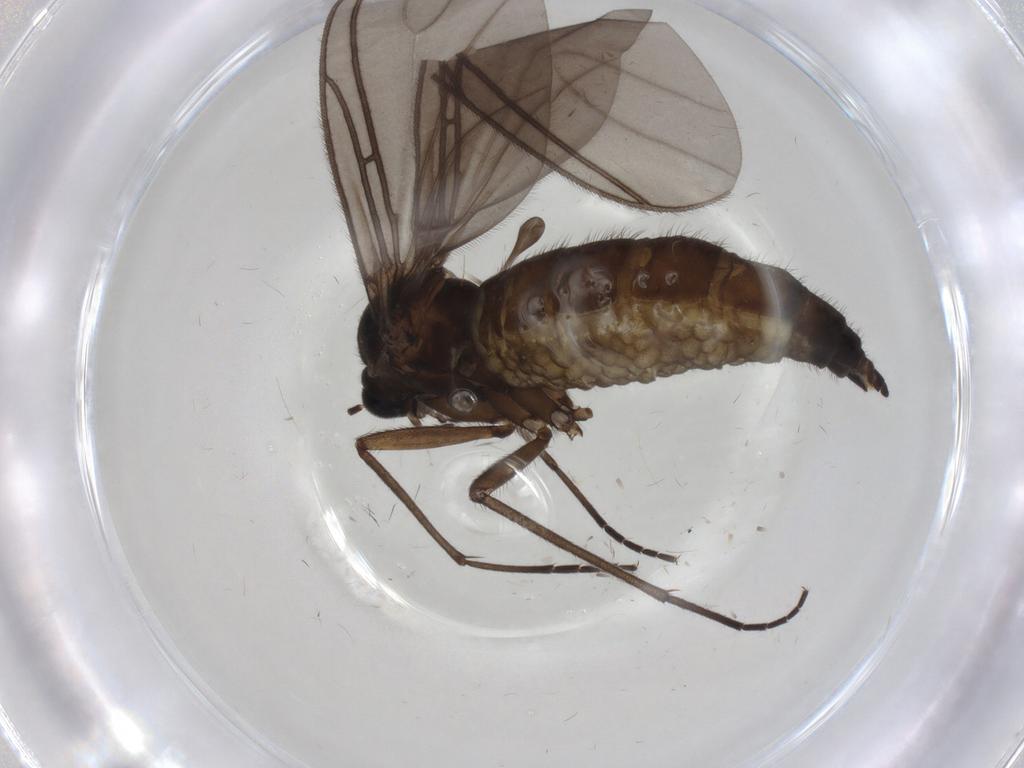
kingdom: Animalia
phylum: Arthropoda
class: Insecta
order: Diptera
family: Sciaridae
